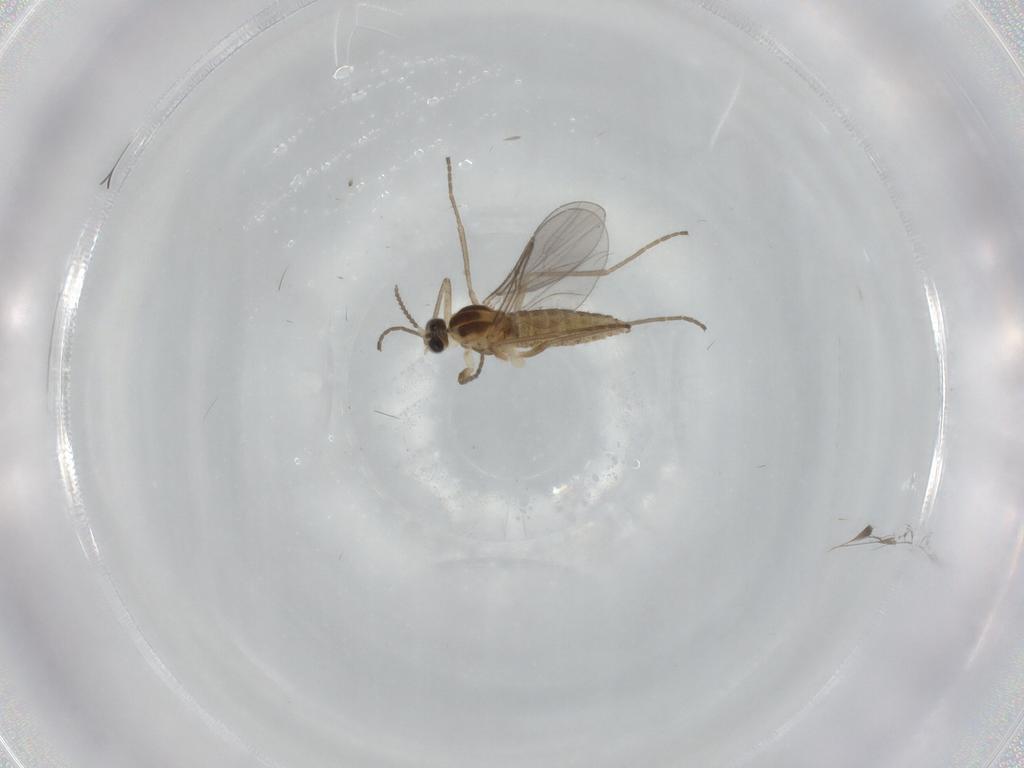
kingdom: Animalia
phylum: Arthropoda
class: Insecta
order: Diptera
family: Cecidomyiidae
